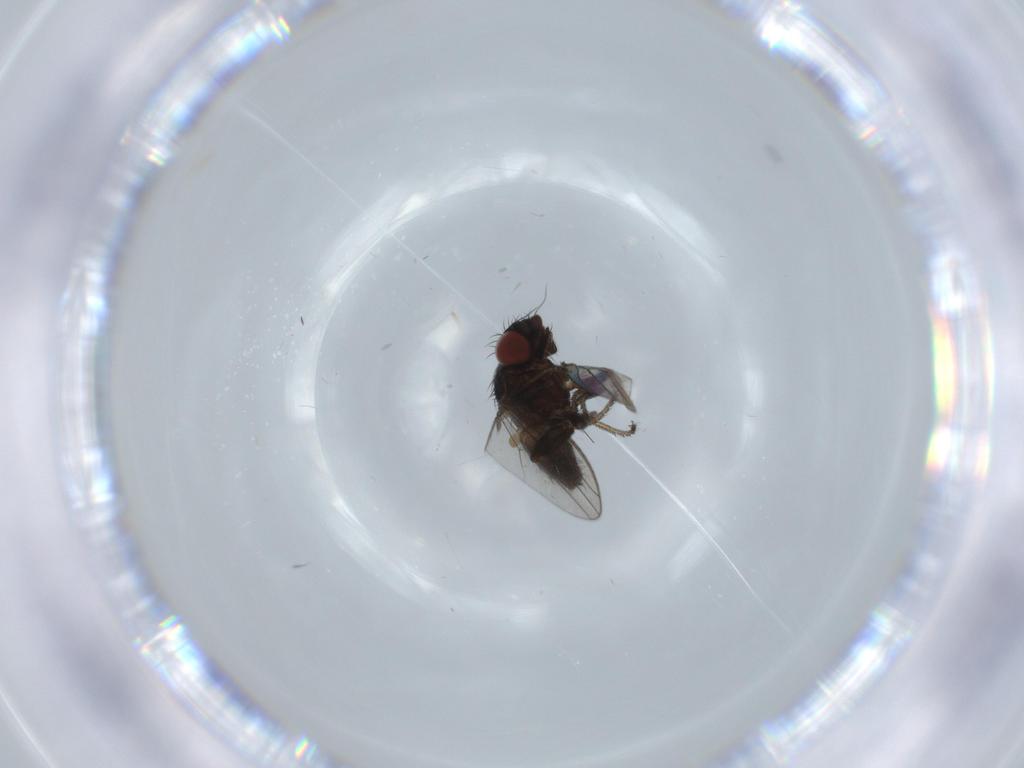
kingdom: Animalia
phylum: Arthropoda
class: Insecta
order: Diptera
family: Milichiidae
